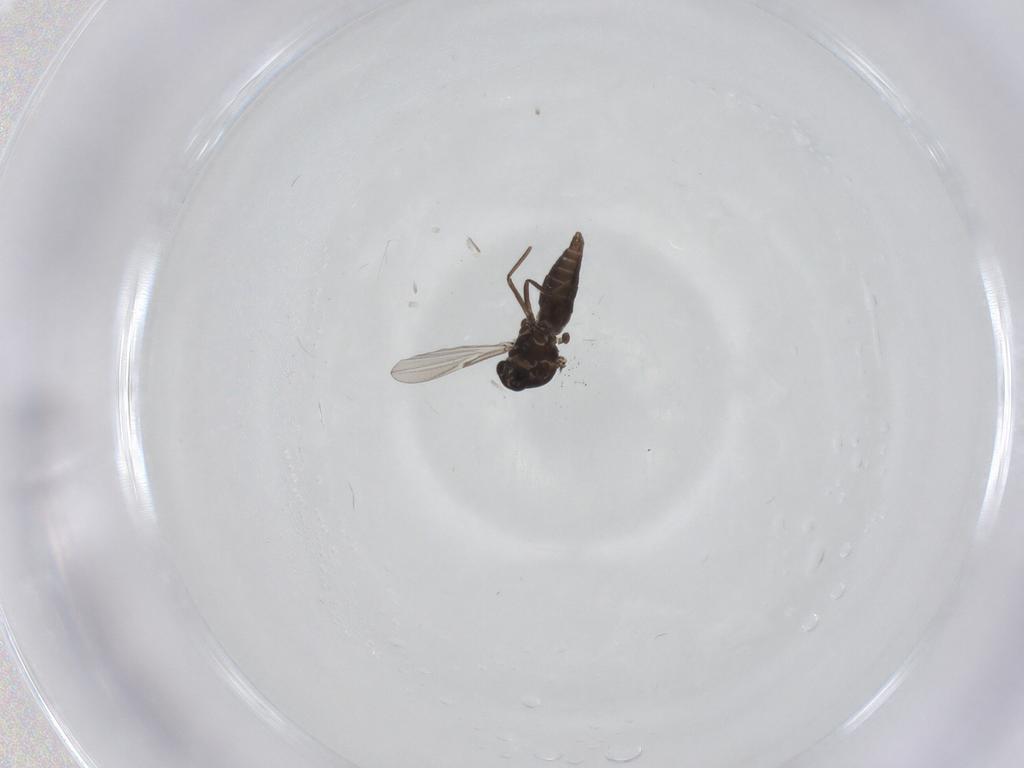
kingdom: Animalia
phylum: Arthropoda
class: Insecta
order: Diptera
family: Ceratopogonidae
